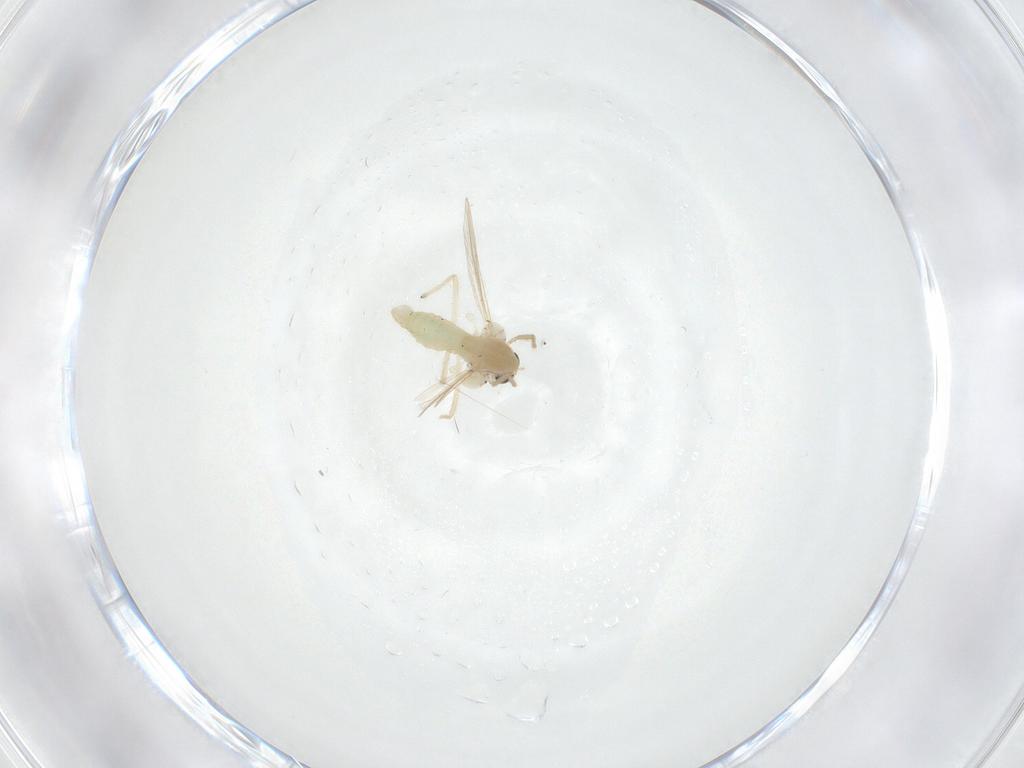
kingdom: Animalia
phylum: Arthropoda
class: Insecta
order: Diptera
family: Chironomidae
